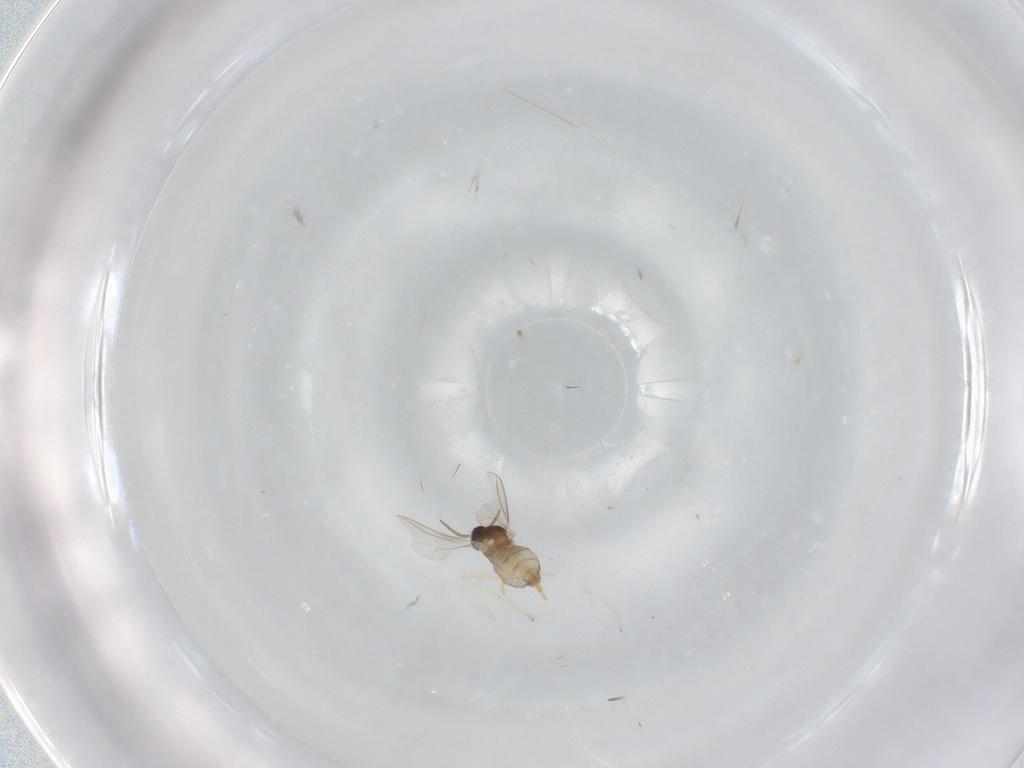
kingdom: Animalia
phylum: Arthropoda
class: Insecta
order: Diptera
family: Cecidomyiidae
